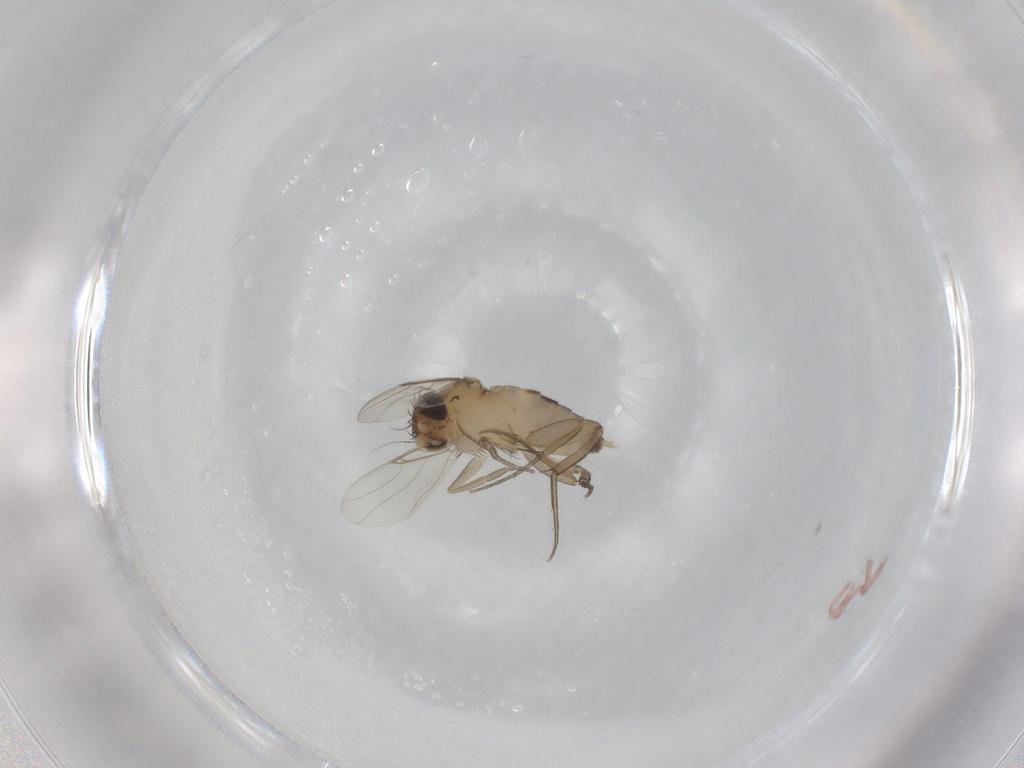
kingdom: Animalia
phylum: Arthropoda
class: Insecta
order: Diptera
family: Phoridae
